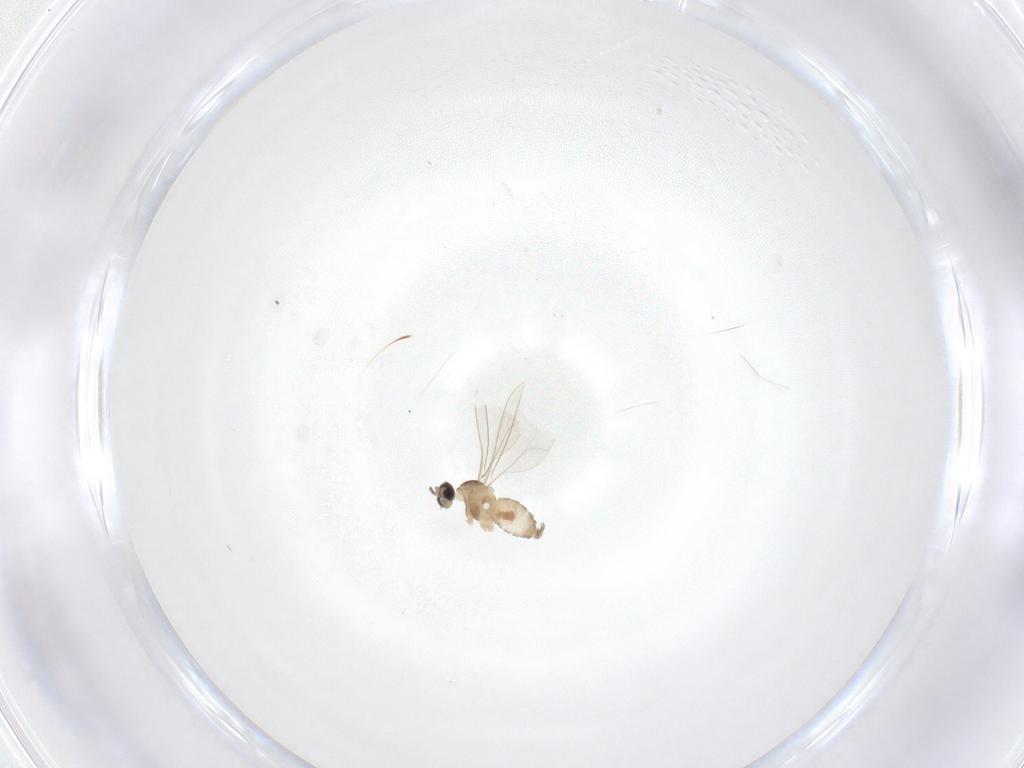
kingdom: Animalia
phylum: Arthropoda
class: Insecta
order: Diptera
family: Cecidomyiidae
